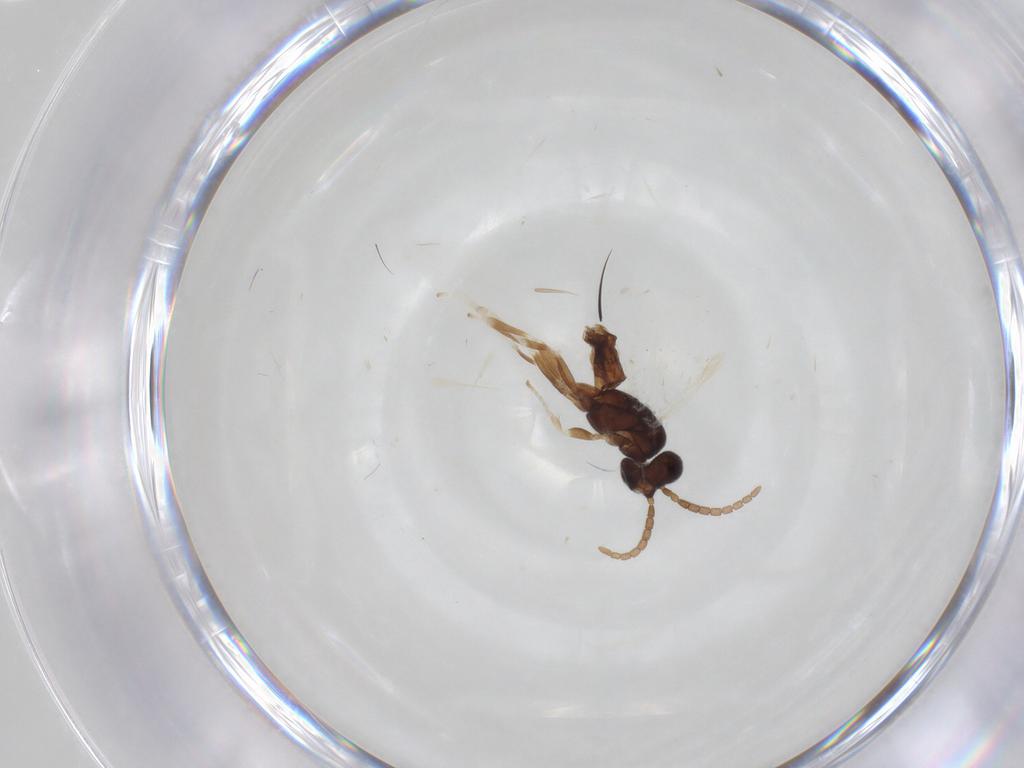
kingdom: Animalia
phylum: Arthropoda
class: Insecta
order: Hymenoptera
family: Dryinidae
